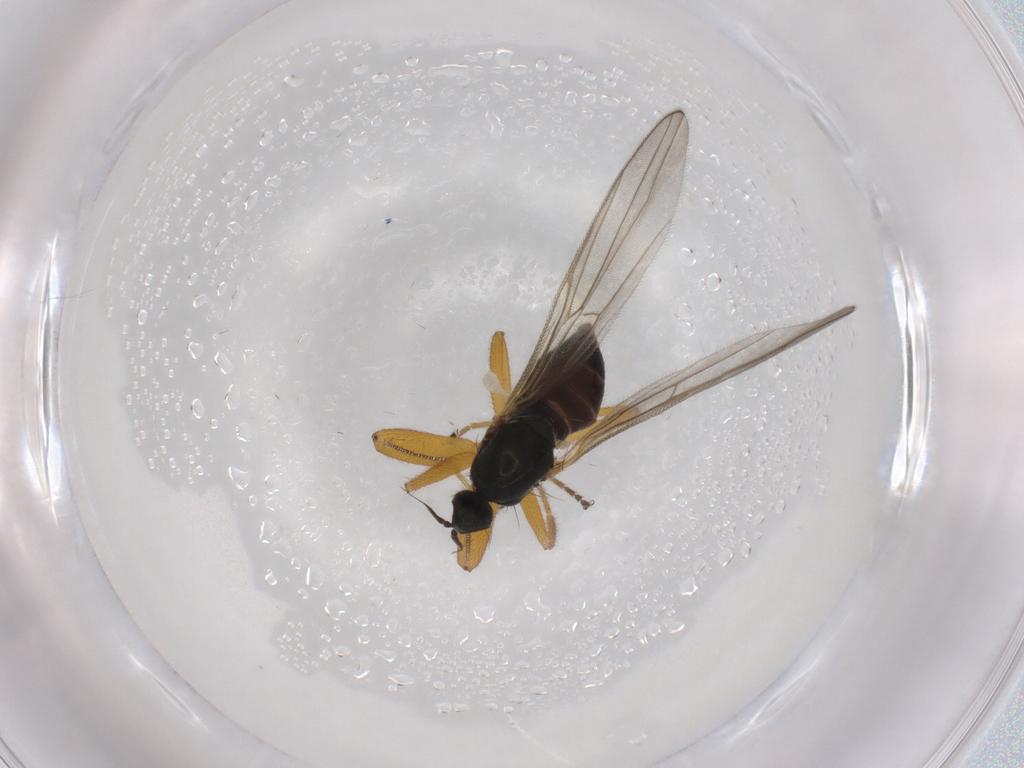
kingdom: Animalia
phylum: Arthropoda
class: Insecta
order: Diptera
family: Hybotidae
